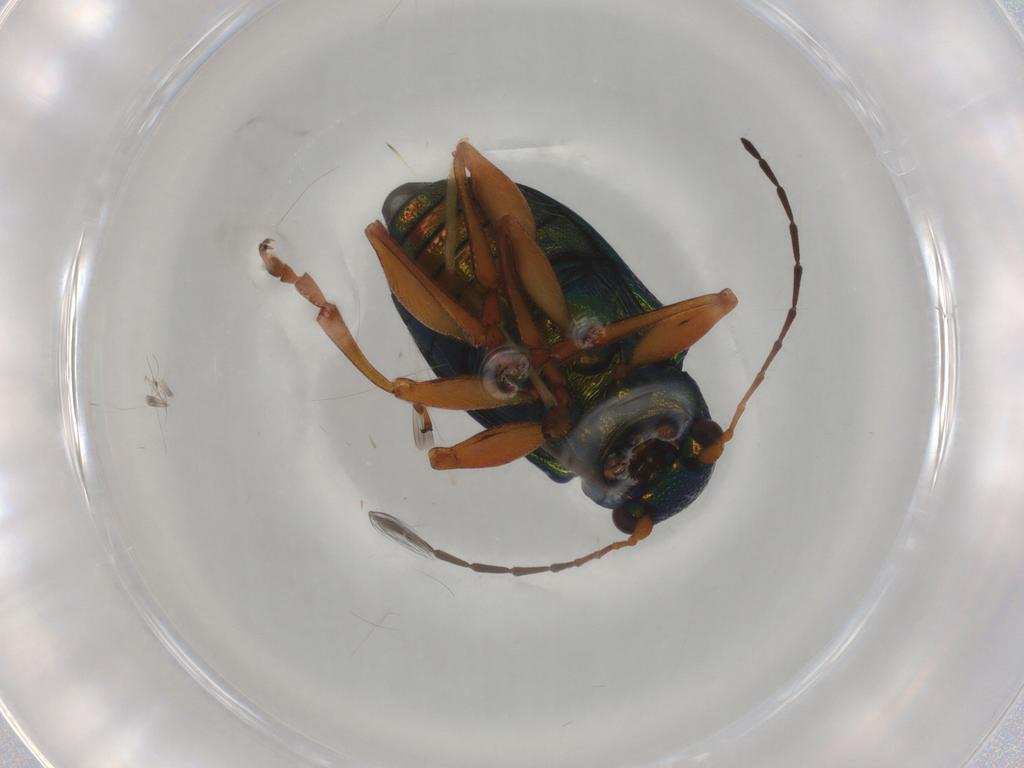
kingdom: Animalia
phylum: Arthropoda
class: Insecta
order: Coleoptera
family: Chrysomelidae
